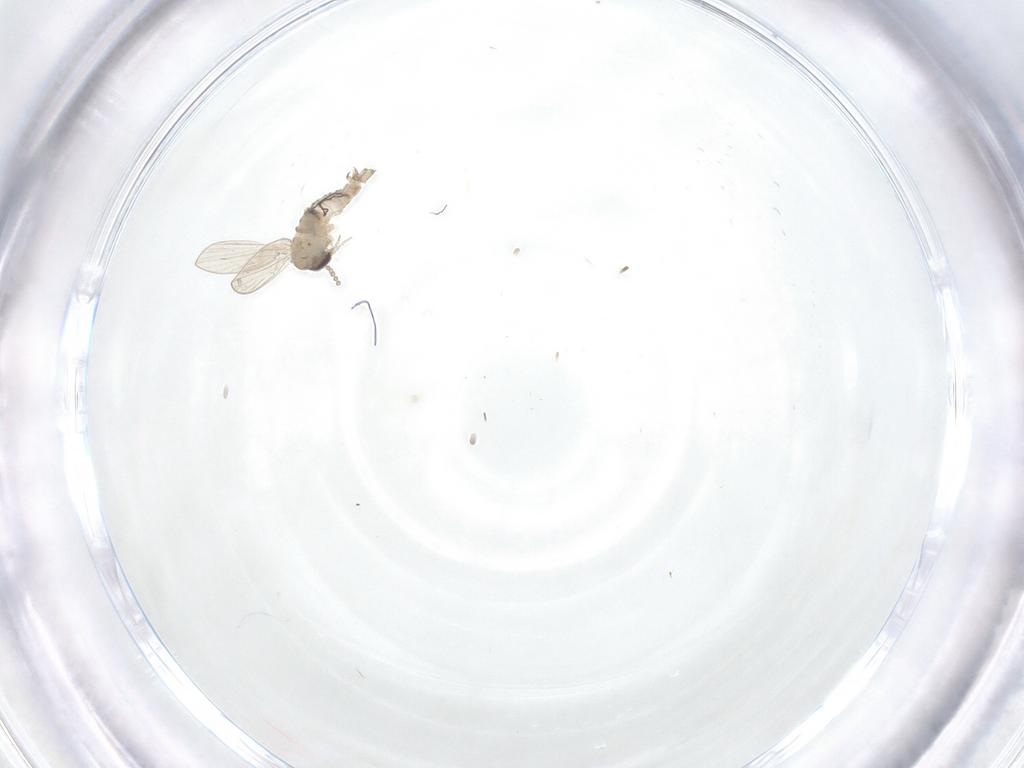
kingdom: Animalia
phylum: Arthropoda
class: Insecta
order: Diptera
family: Psychodidae
